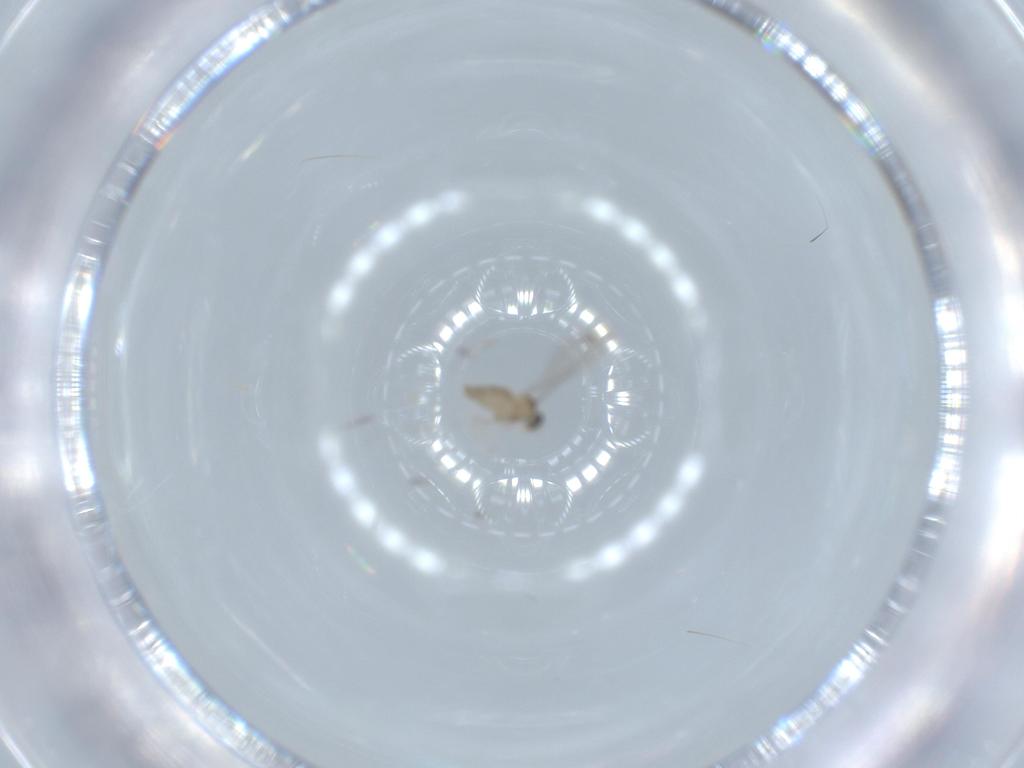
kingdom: Animalia
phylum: Arthropoda
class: Insecta
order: Diptera
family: Cecidomyiidae
